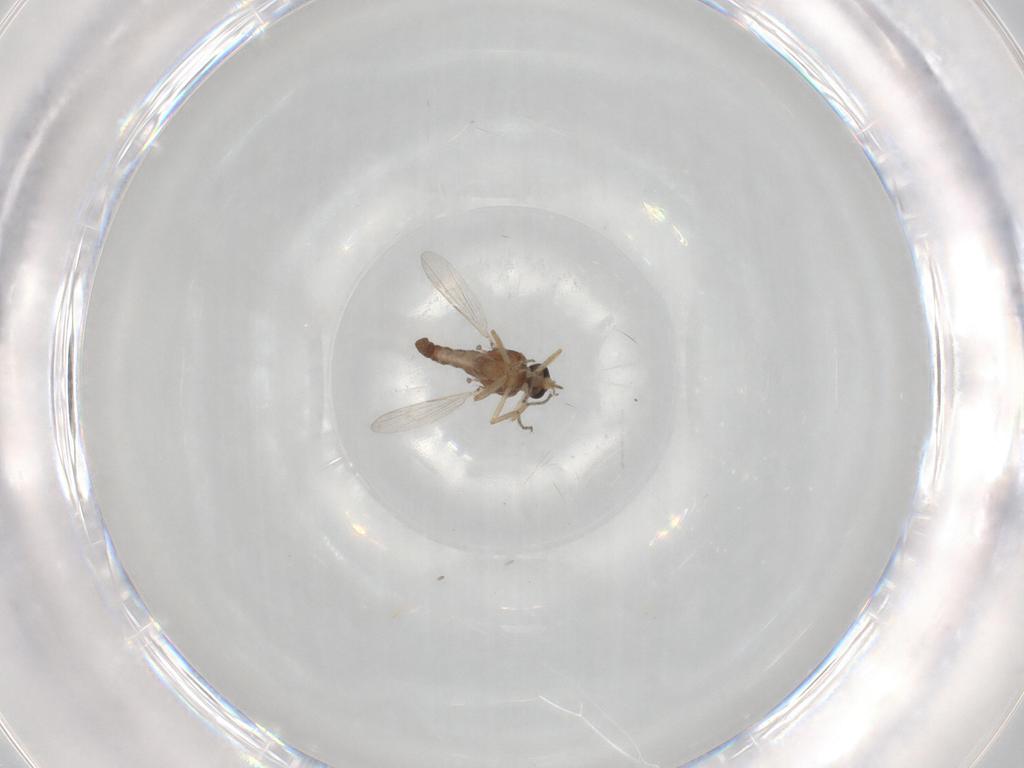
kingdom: Animalia
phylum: Arthropoda
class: Insecta
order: Diptera
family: Ceratopogonidae
